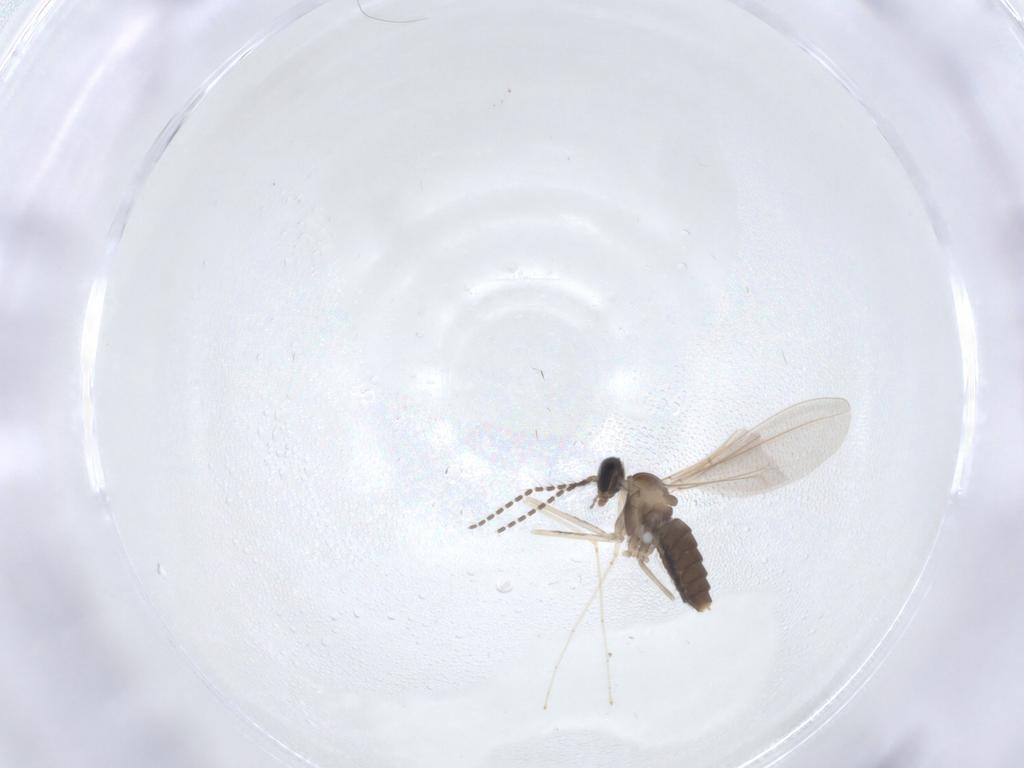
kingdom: Animalia
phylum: Arthropoda
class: Insecta
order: Diptera
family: Cecidomyiidae
